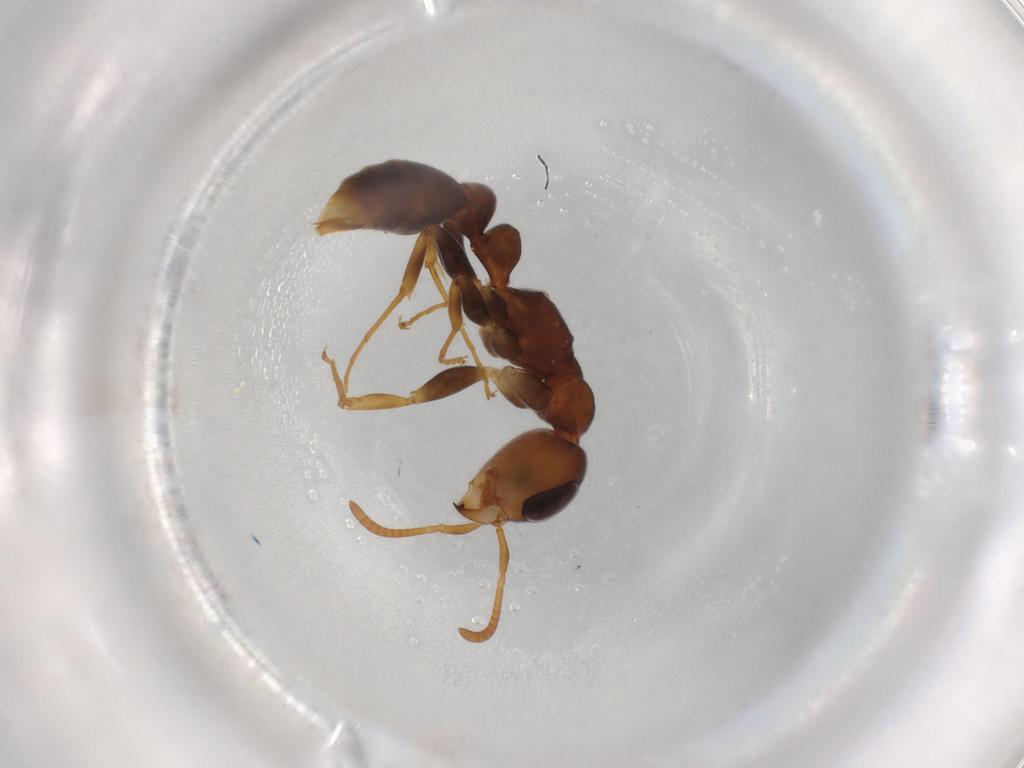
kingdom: Animalia
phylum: Arthropoda
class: Insecta
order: Hymenoptera
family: Formicidae
